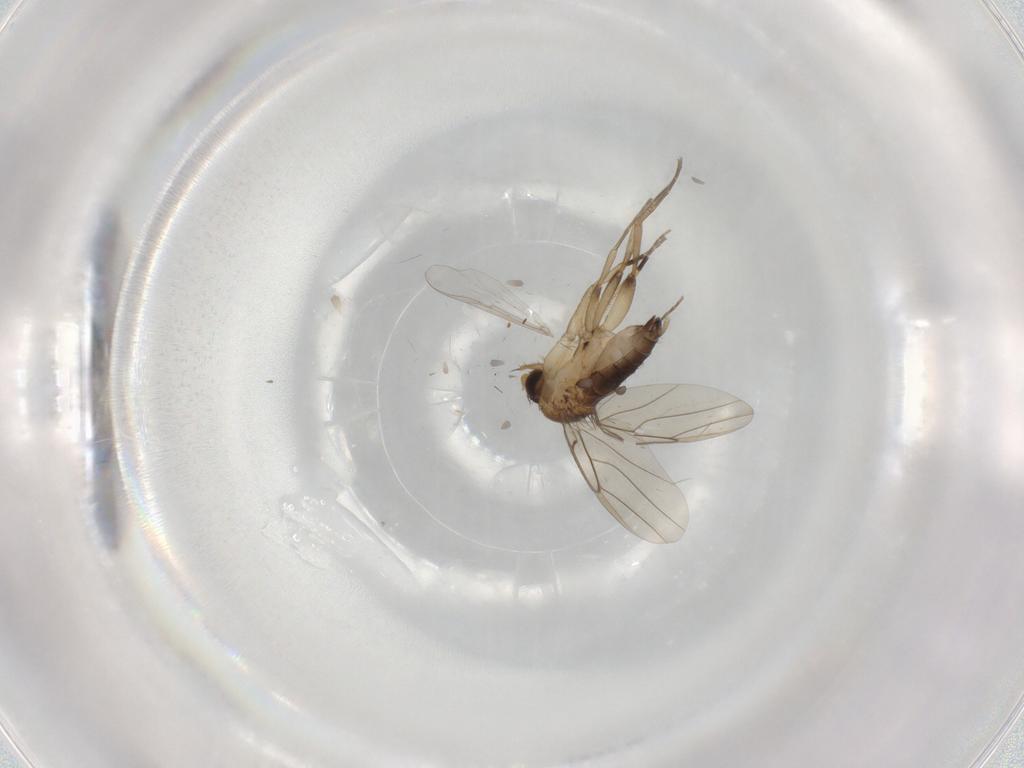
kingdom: Animalia
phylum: Arthropoda
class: Insecta
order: Diptera
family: Phoridae
